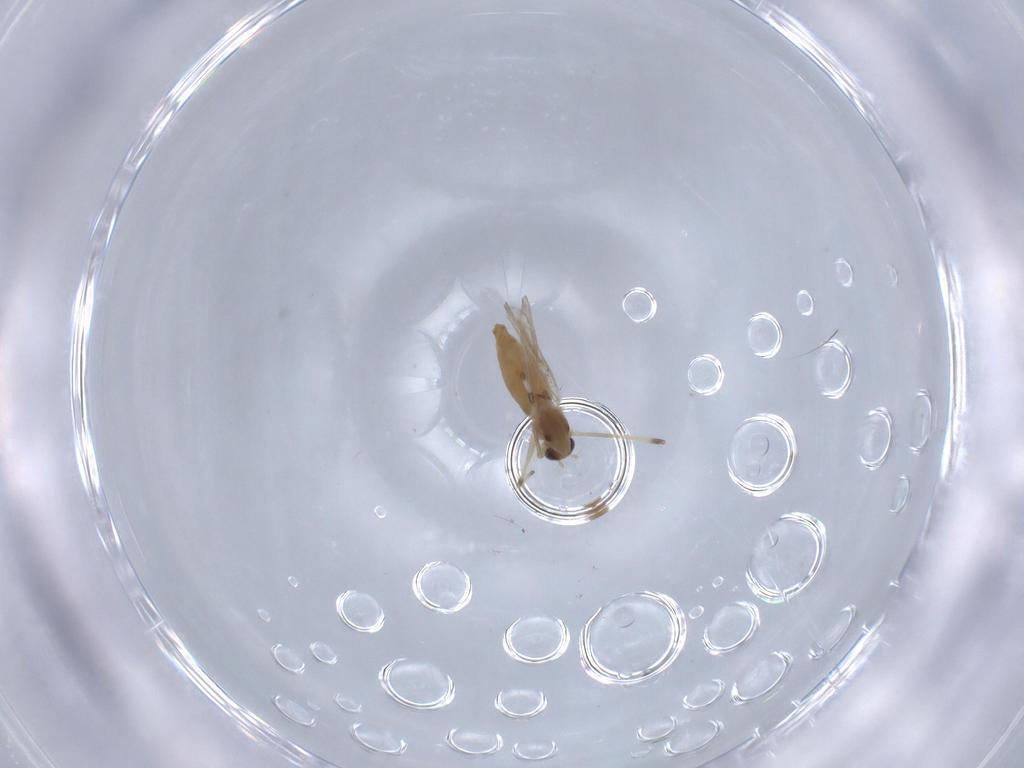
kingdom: Animalia
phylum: Arthropoda
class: Insecta
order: Diptera
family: Chironomidae
